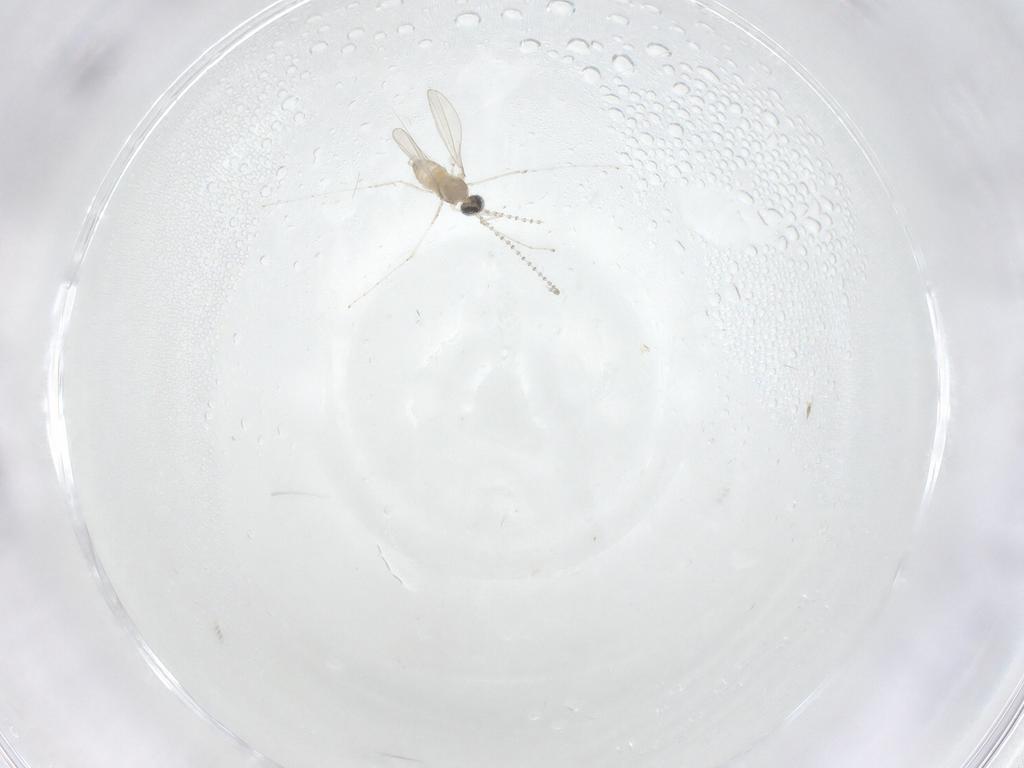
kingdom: Animalia
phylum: Arthropoda
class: Insecta
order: Diptera
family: Cecidomyiidae
